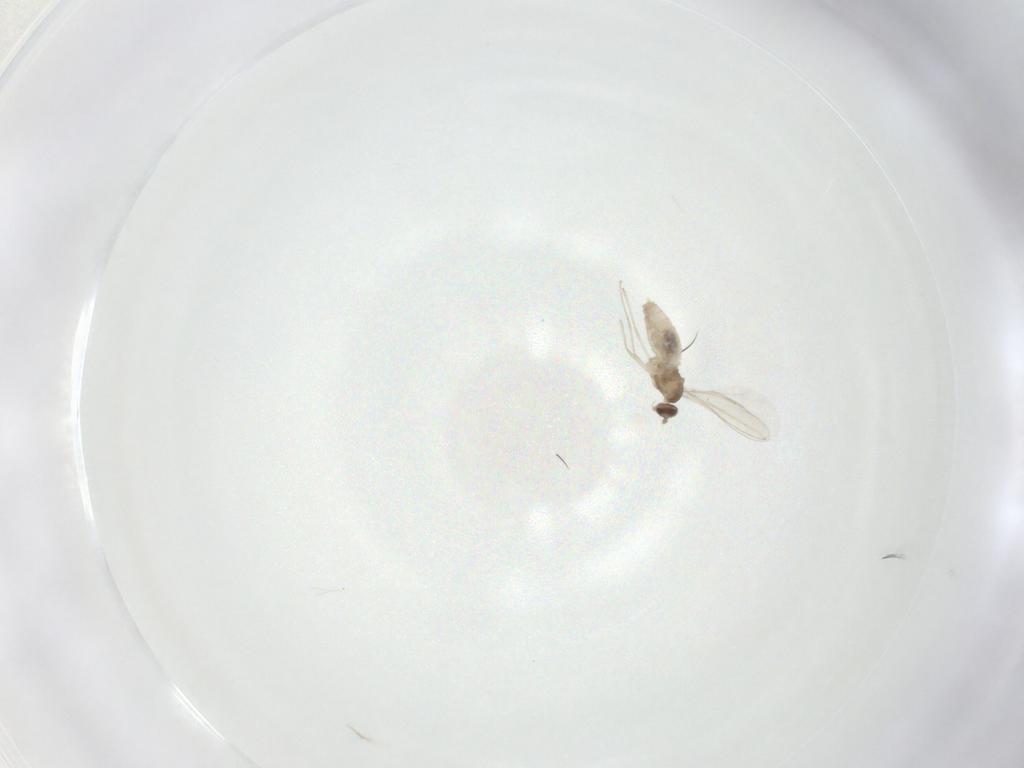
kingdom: Animalia
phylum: Arthropoda
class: Insecta
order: Diptera
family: Cecidomyiidae
